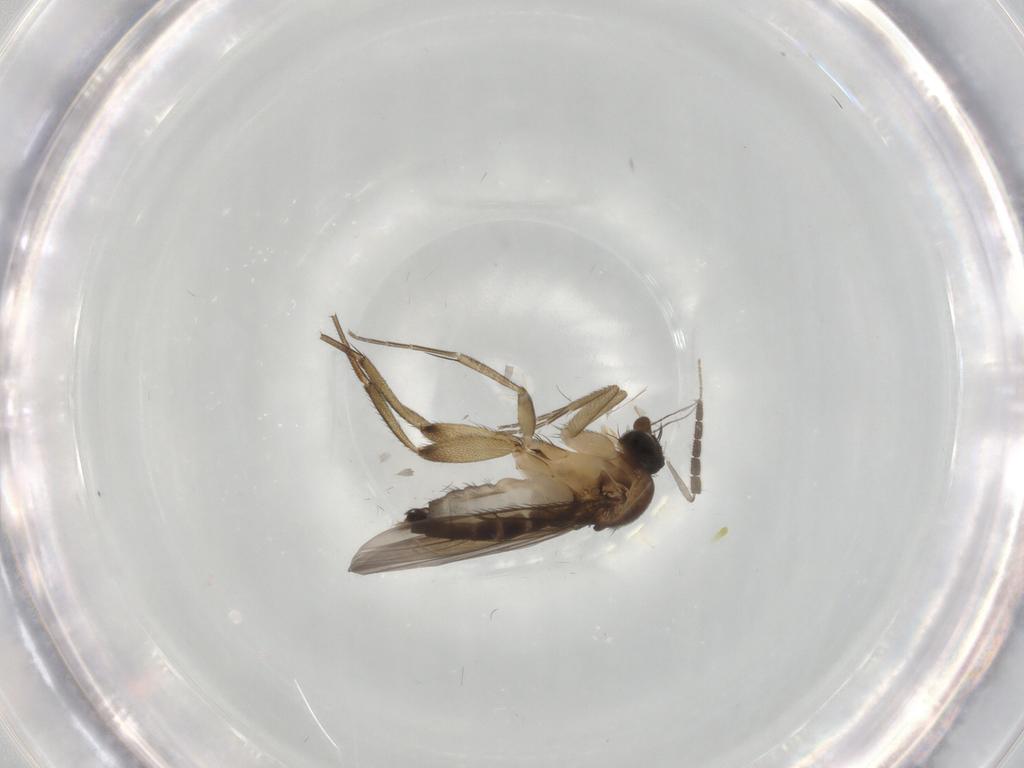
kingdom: Animalia
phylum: Arthropoda
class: Insecta
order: Diptera
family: Phoridae
